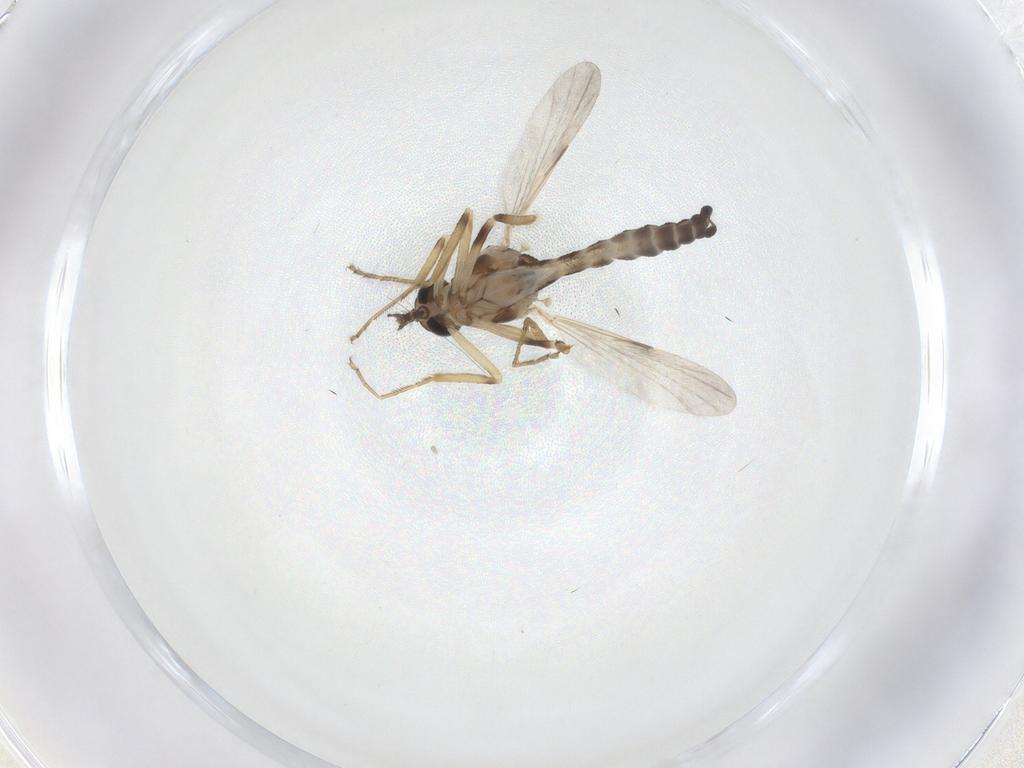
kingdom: Animalia
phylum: Arthropoda
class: Insecta
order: Diptera
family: Ceratopogonidae
